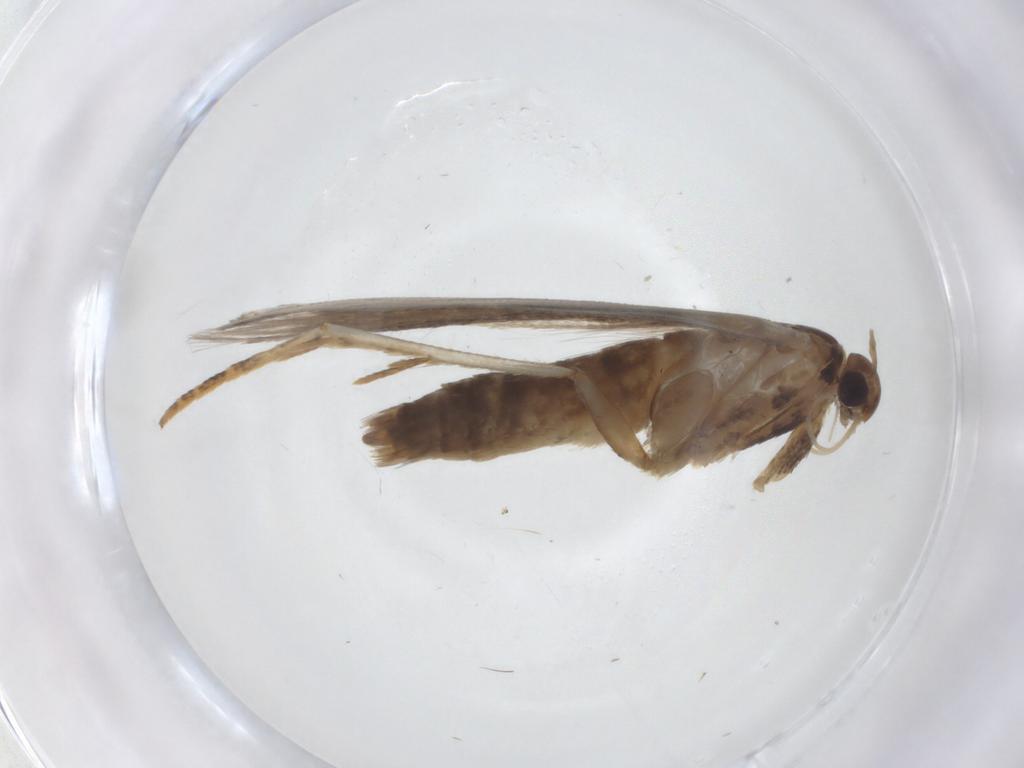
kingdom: Animalia
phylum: Arthropoda
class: Insecta
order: Lepidoptera
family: Gelechiidae
